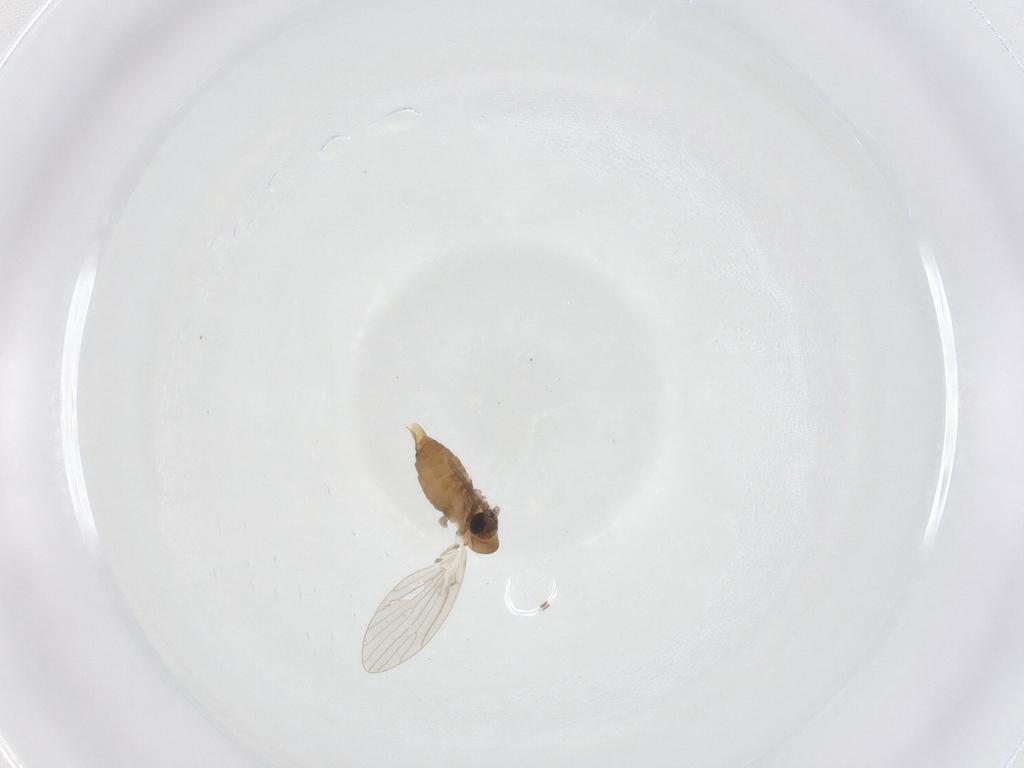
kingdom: Animalia
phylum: Arthropoda
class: Insecta
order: Diptera
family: Psychodidae
